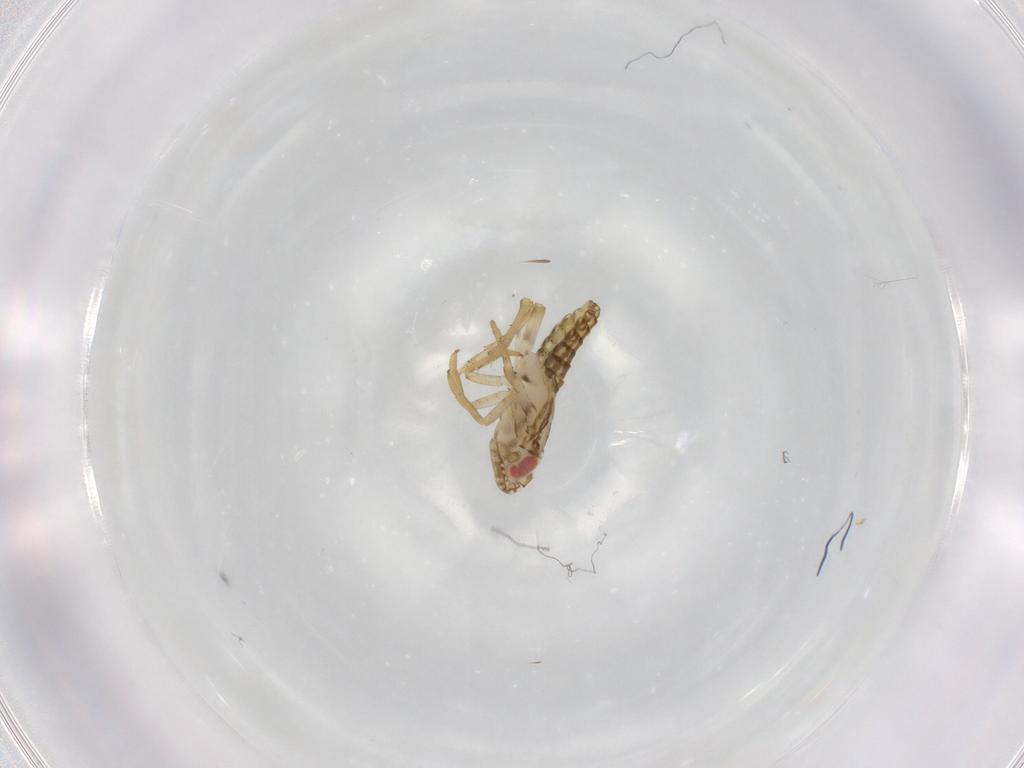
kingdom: Animalia
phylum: Arthropoda
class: Insecta
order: Hemiptera
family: Delphacidae
